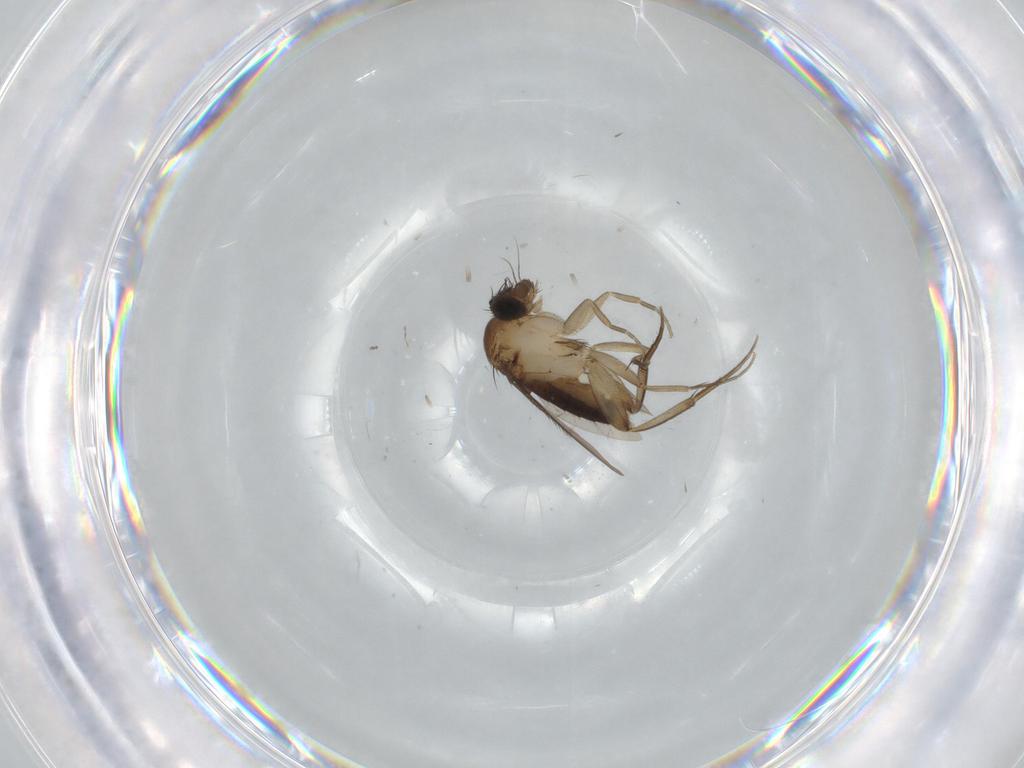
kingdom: Animalia
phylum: Arthropoda
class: Insecta
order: Diptera
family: Phoridae
